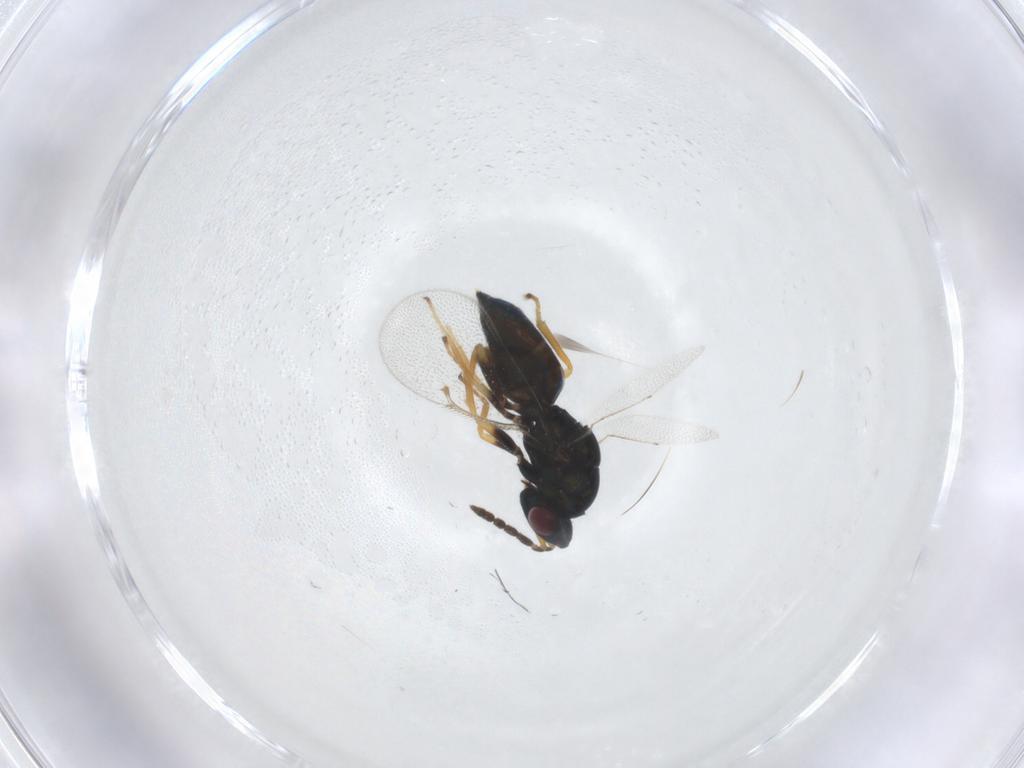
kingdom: Animalia
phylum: Arthropoda
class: Insecta
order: Hymenoptera
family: Eulophidae
